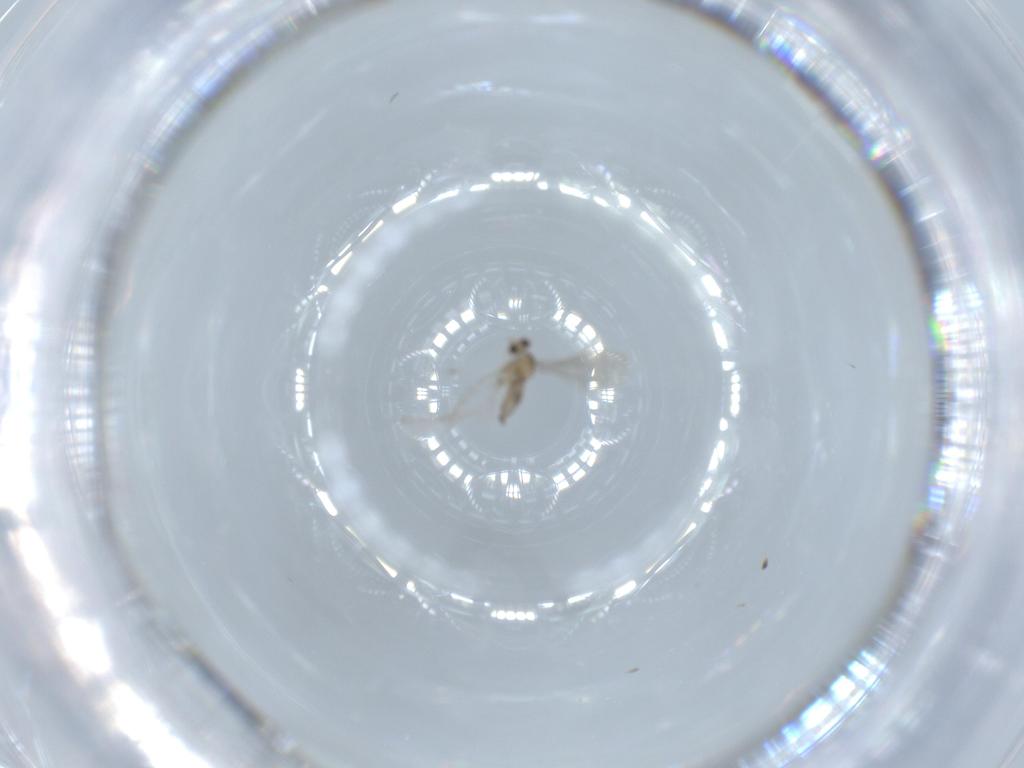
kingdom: Animalia
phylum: Arthropoda
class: Insecta
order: Diptera
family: Cecidomyiidae
